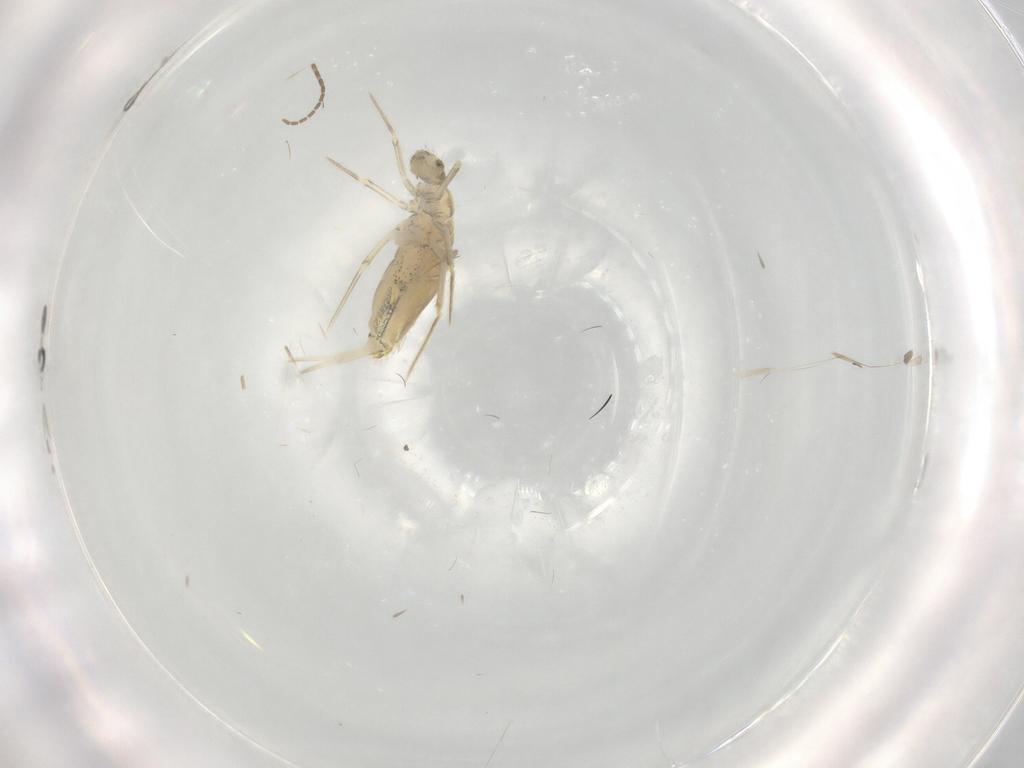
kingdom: Animalia
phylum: Arthropoda
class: Collembola
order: Entomobryomorpha
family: Paronellidae
